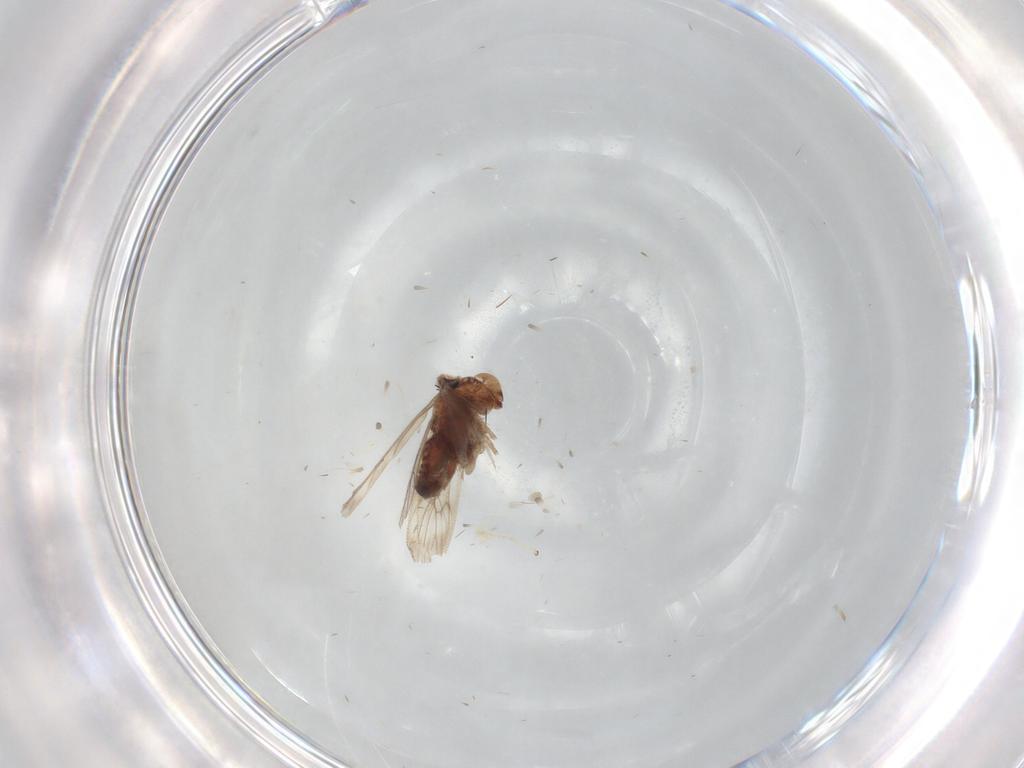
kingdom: Animalia
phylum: Arthropoda
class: Insecta
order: Psocodea
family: Lepidopsocidae
